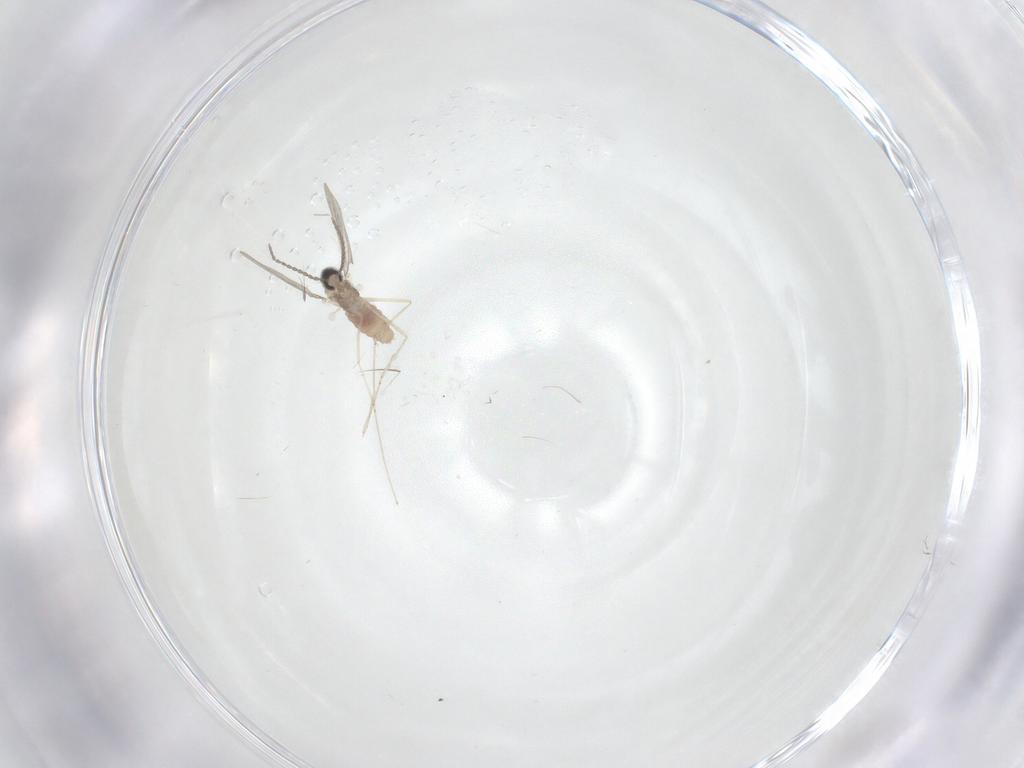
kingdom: Animalia
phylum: Arthropoda
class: Insecta
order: Diptera
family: Cecidomyiidae
